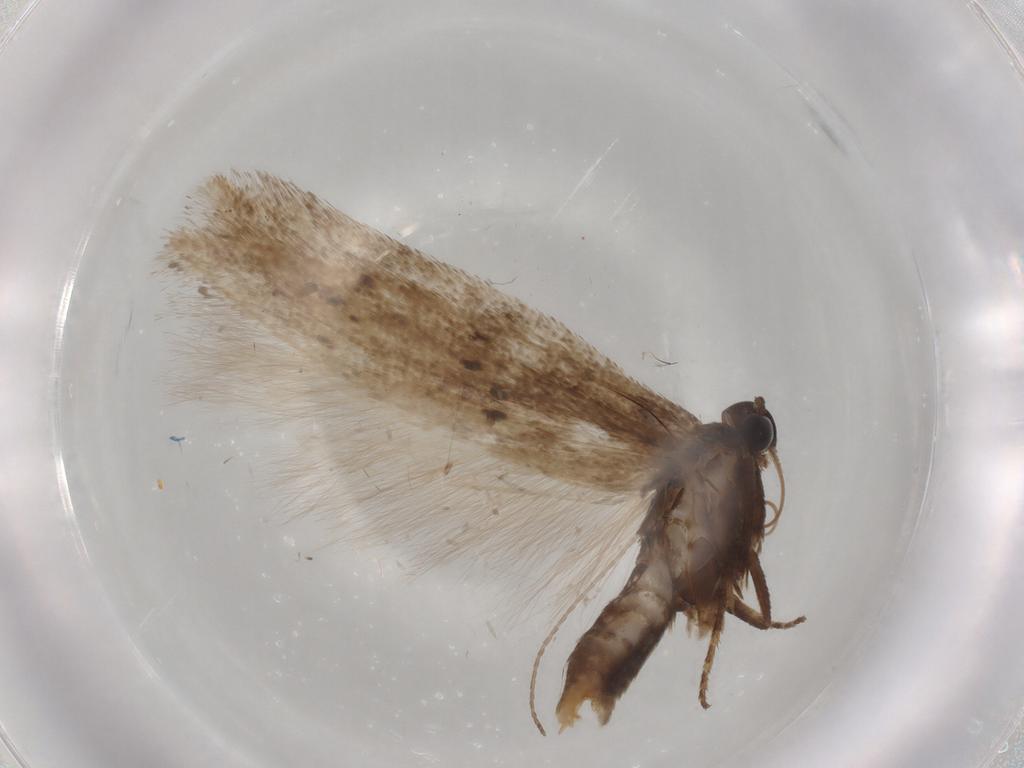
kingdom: Animalia
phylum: Arthropoda
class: Insecta
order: Lepidoptera
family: Gelechiidae
